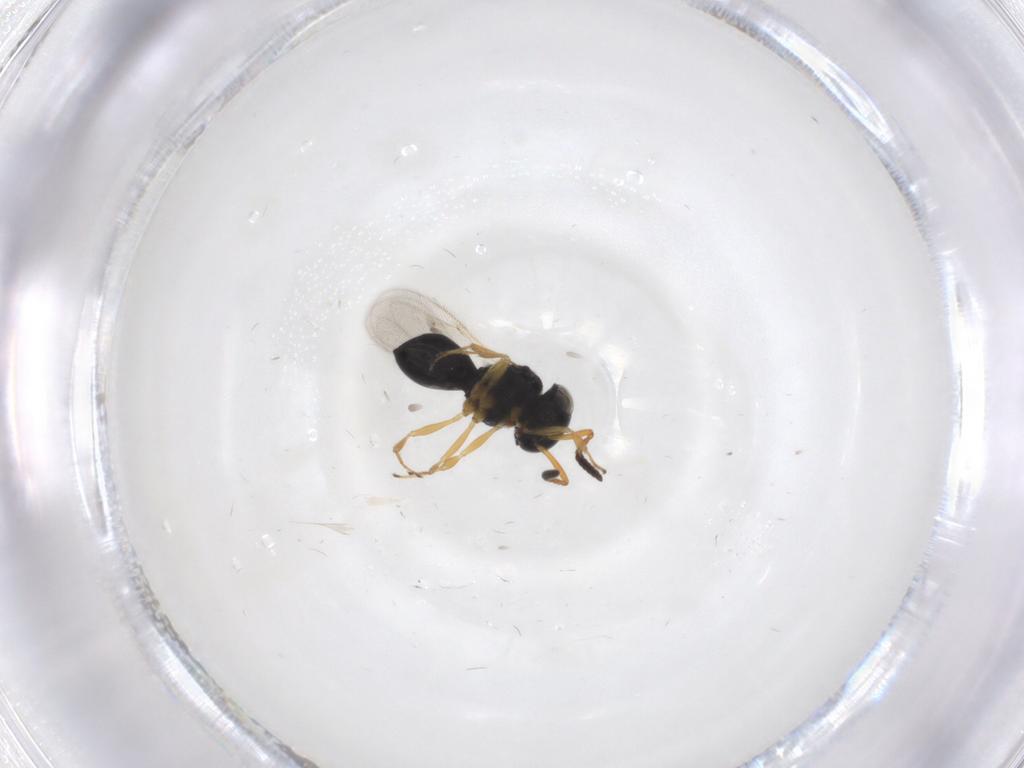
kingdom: Animalia
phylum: Arthropoda
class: Insecta
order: Hymenoptera
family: Scelionidae
